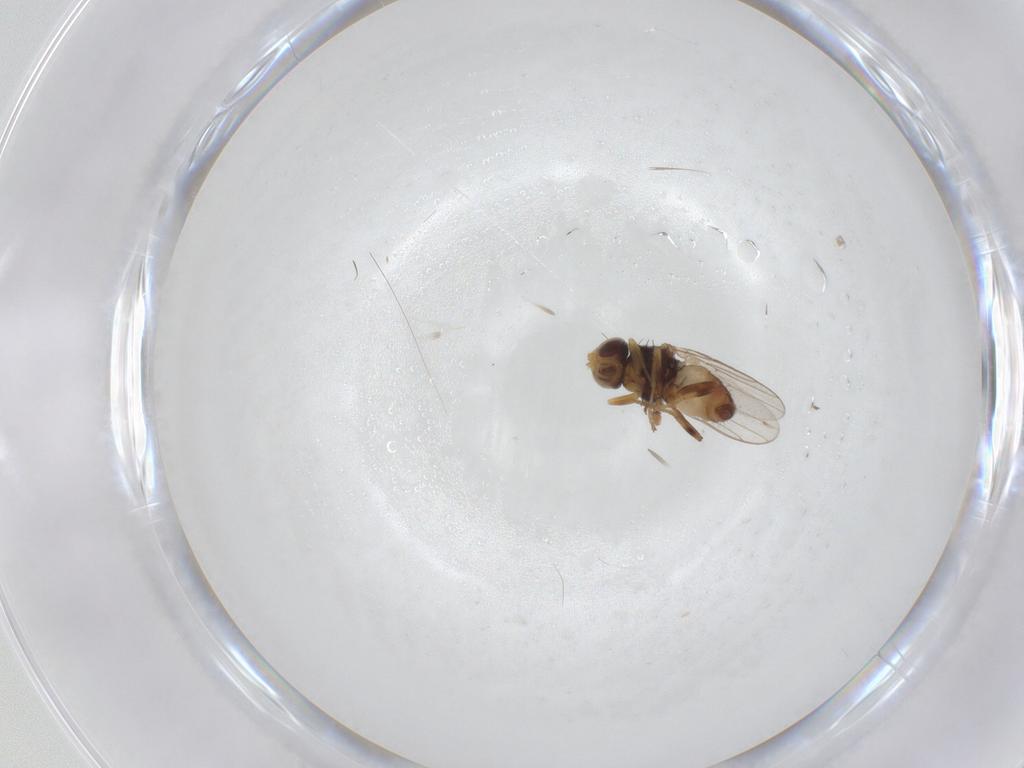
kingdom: Animalia
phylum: Arthropoda
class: Insecta
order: Diptera
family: Chloropidae
